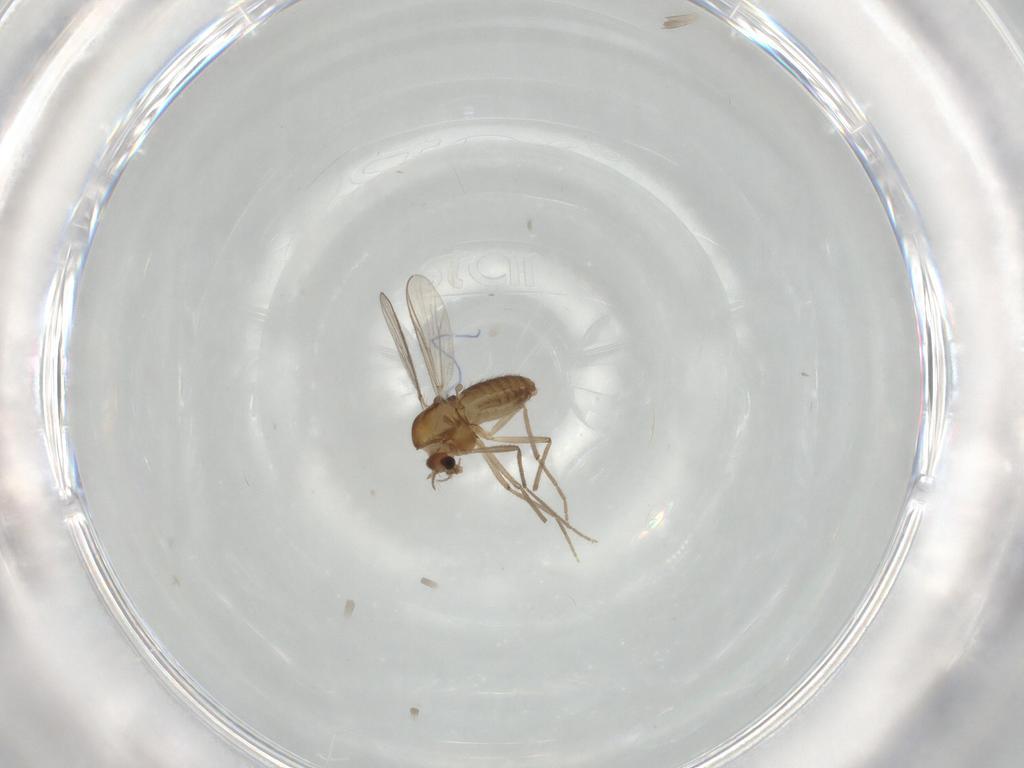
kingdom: Animalia
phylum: Arthropoda
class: Insecta
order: Diptera
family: Chironomidae
